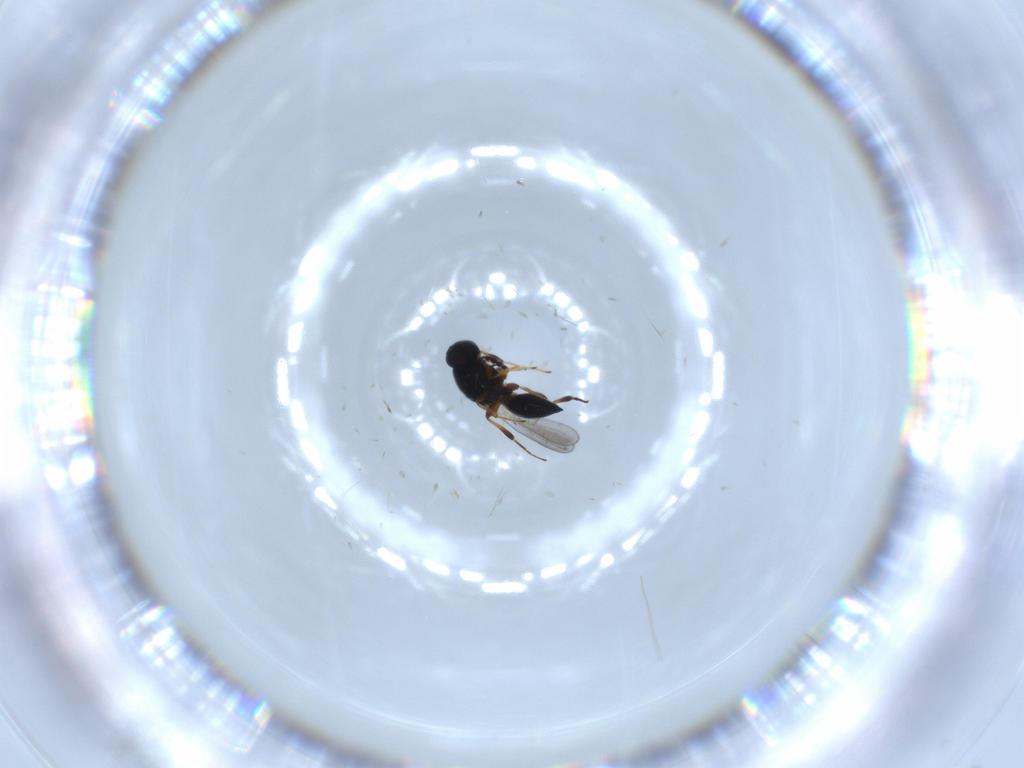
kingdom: Animalia
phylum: Arthropoda
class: Insecta
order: Hymenoptera
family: Platygastridae
